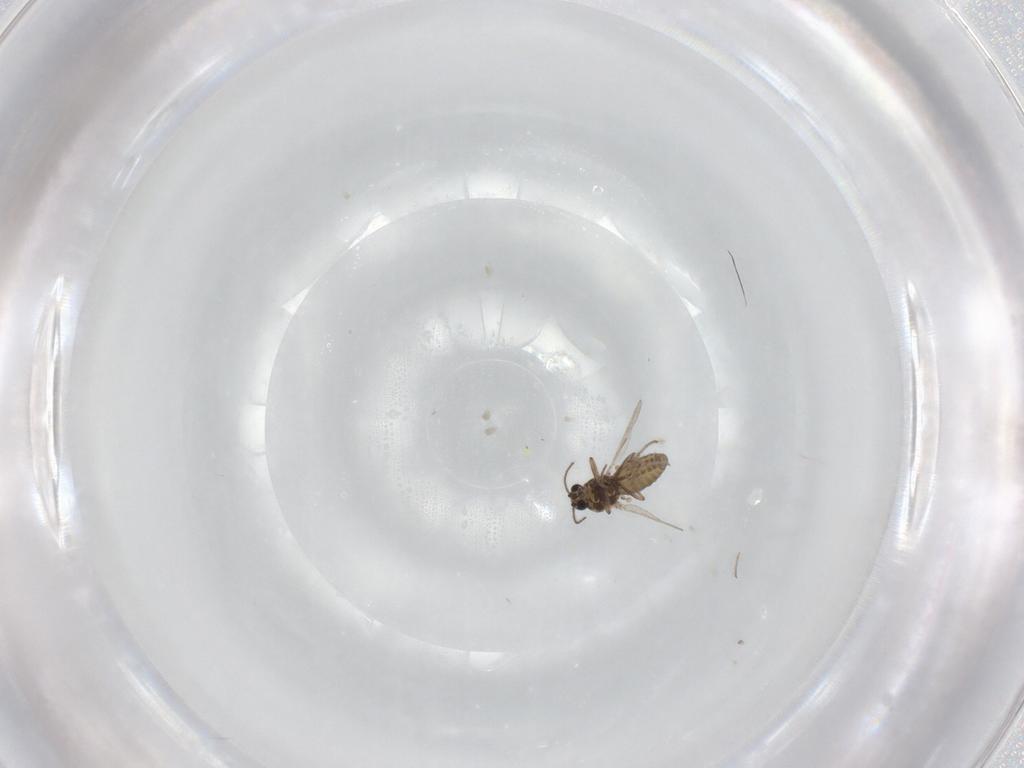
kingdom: Animalia
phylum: Arthropoda
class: Insecta
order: Diptera
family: Ceratopogonidae
